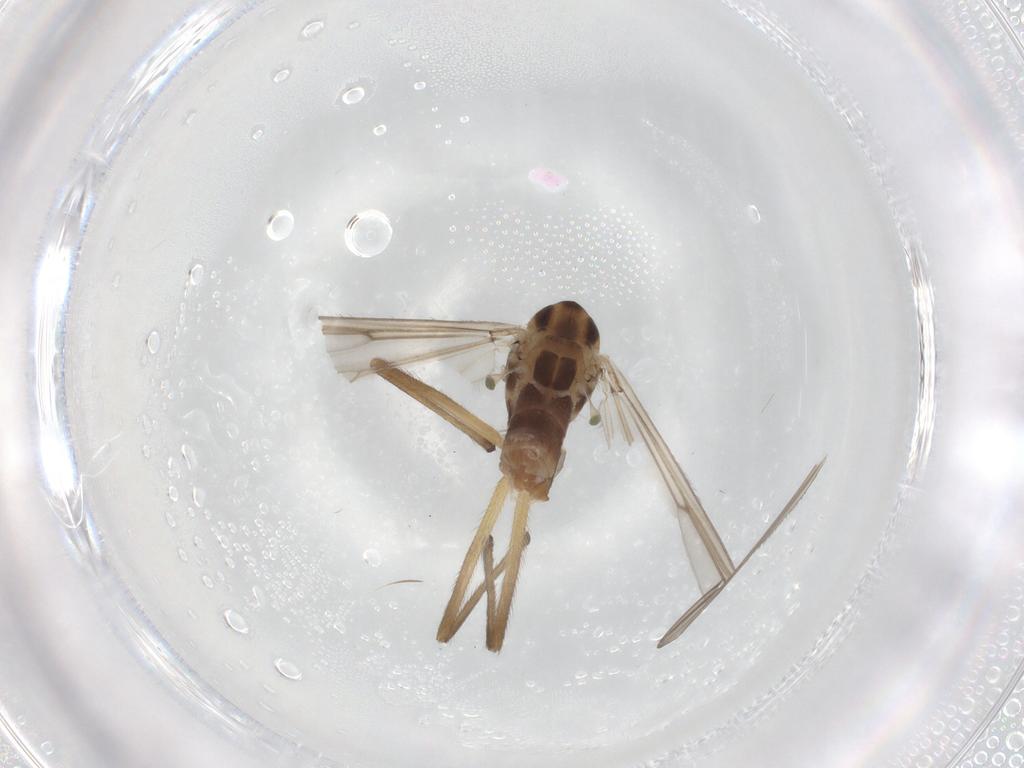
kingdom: Animalia
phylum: Arthropoda
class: Insecta
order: Diptera
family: Chironomidae
